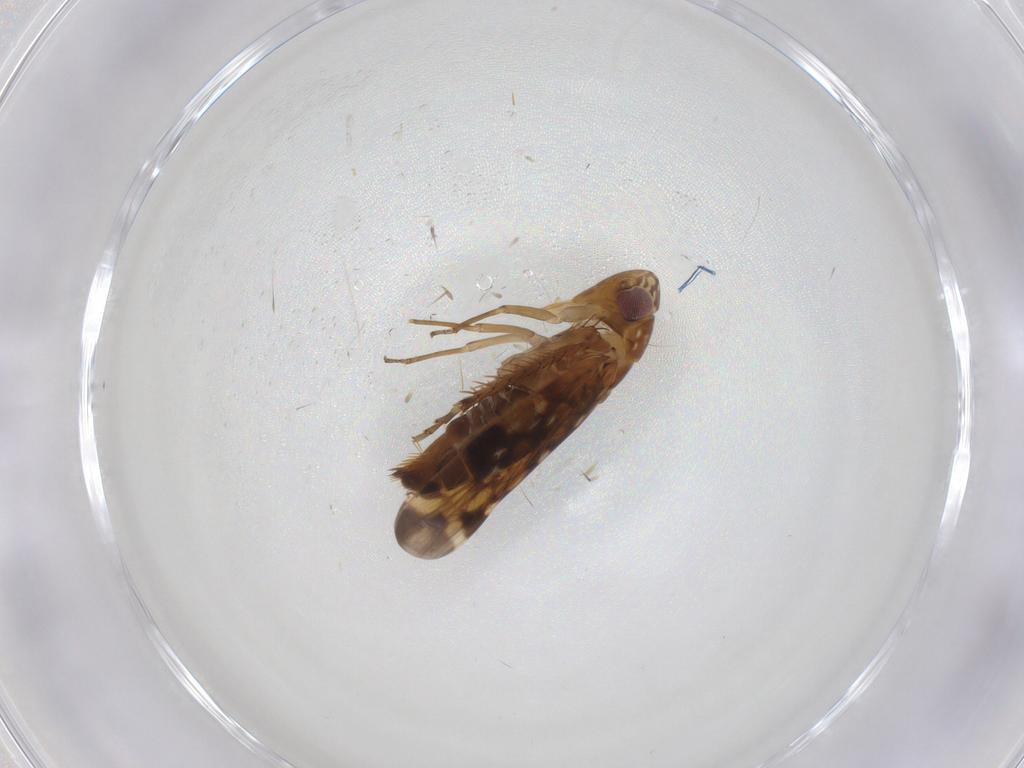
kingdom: Animalia
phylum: Arthropoda
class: Insecta
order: Hemiptera
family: Cicadellidae
